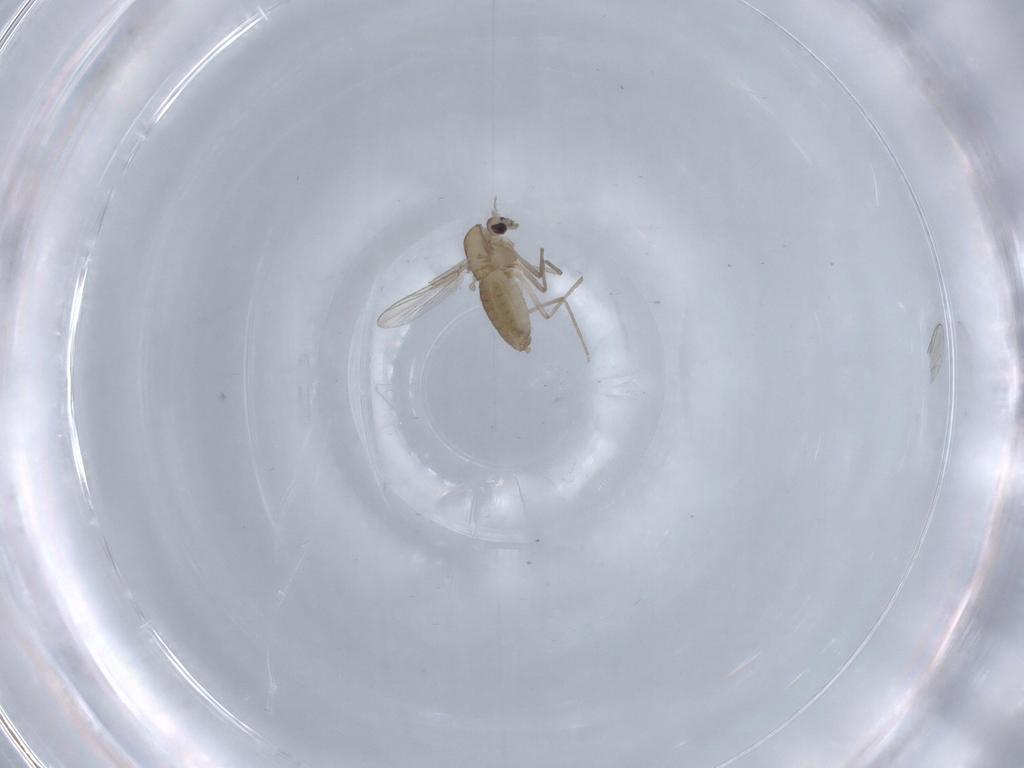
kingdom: Animalia
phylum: Arthropoda
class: Insecta
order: Diptera
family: Chironomidae
